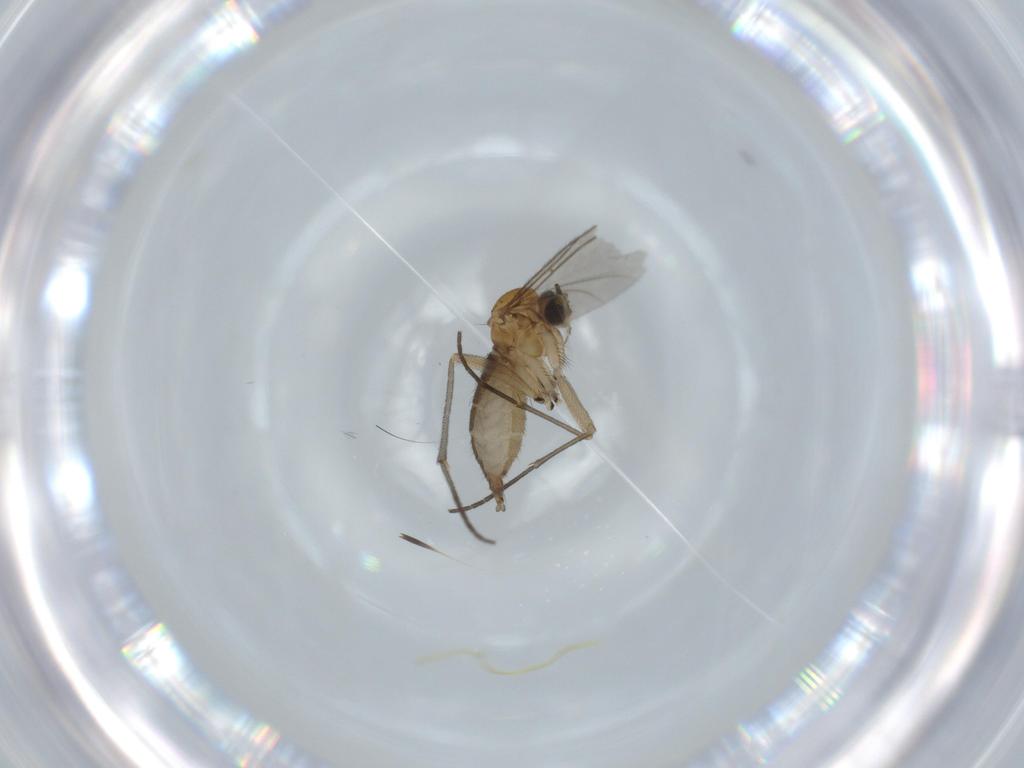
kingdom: Animalia
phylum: Arthropoda
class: Insecta
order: Diptera
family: Sciaridae
